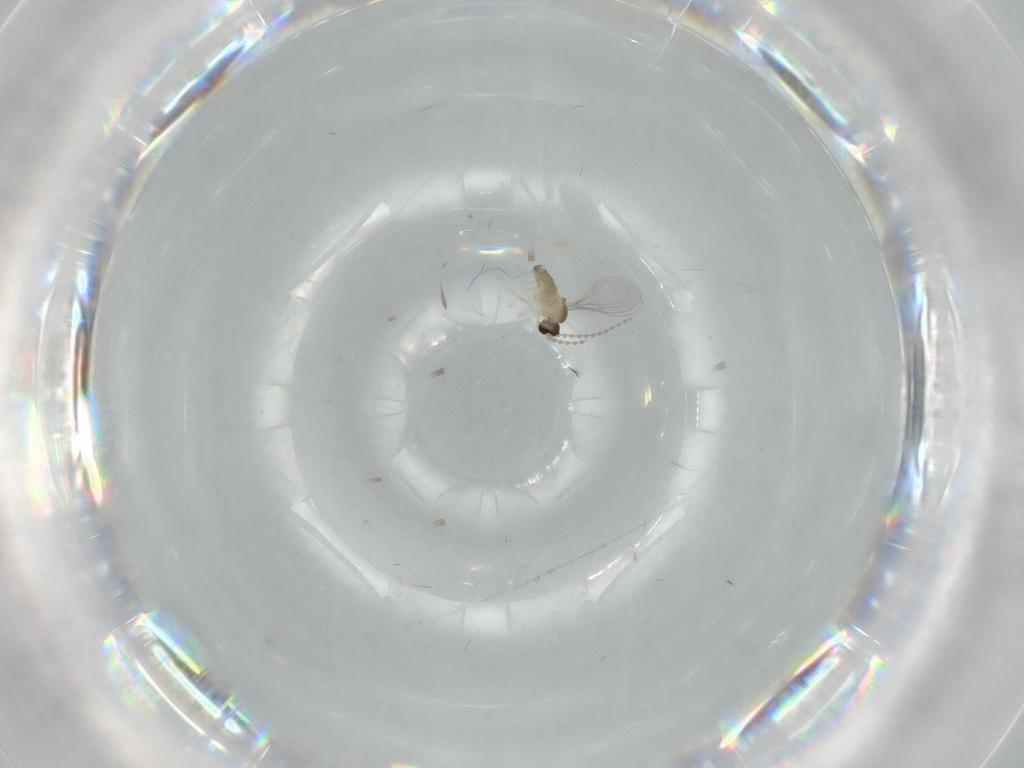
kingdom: Animalia
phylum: Arthropoda
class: Insecta
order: Diptera
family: Cecidomyiidae
